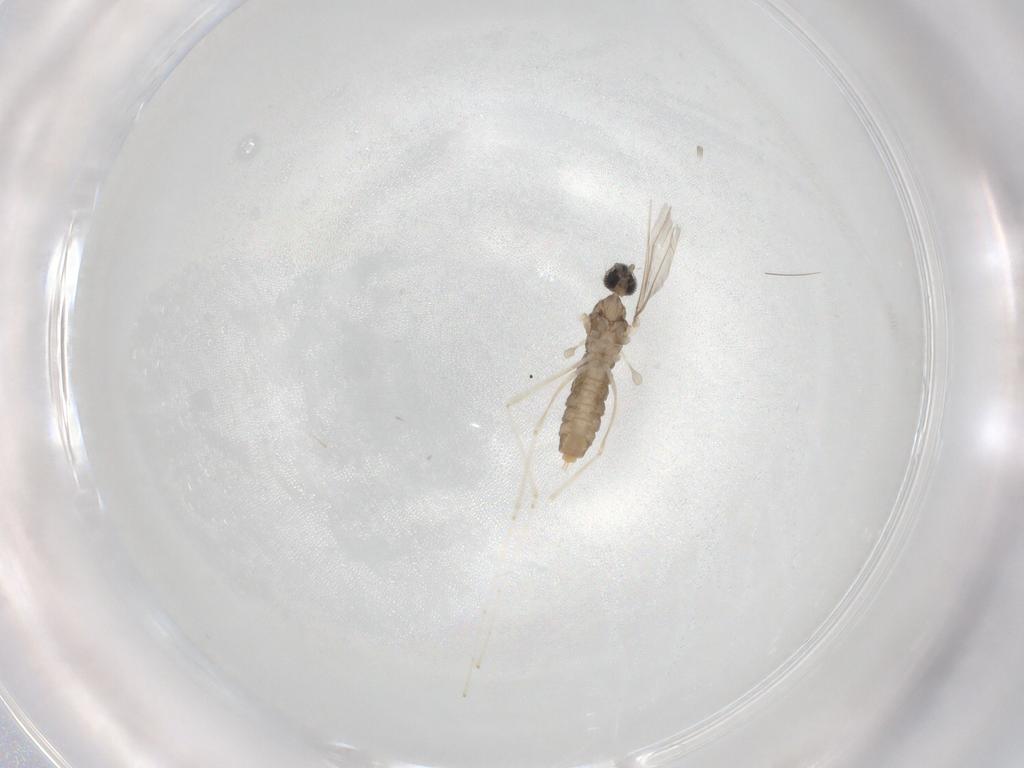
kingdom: Animalia
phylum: Arthropoda
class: Insecta
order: Diptera
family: Cecidomyiidae
